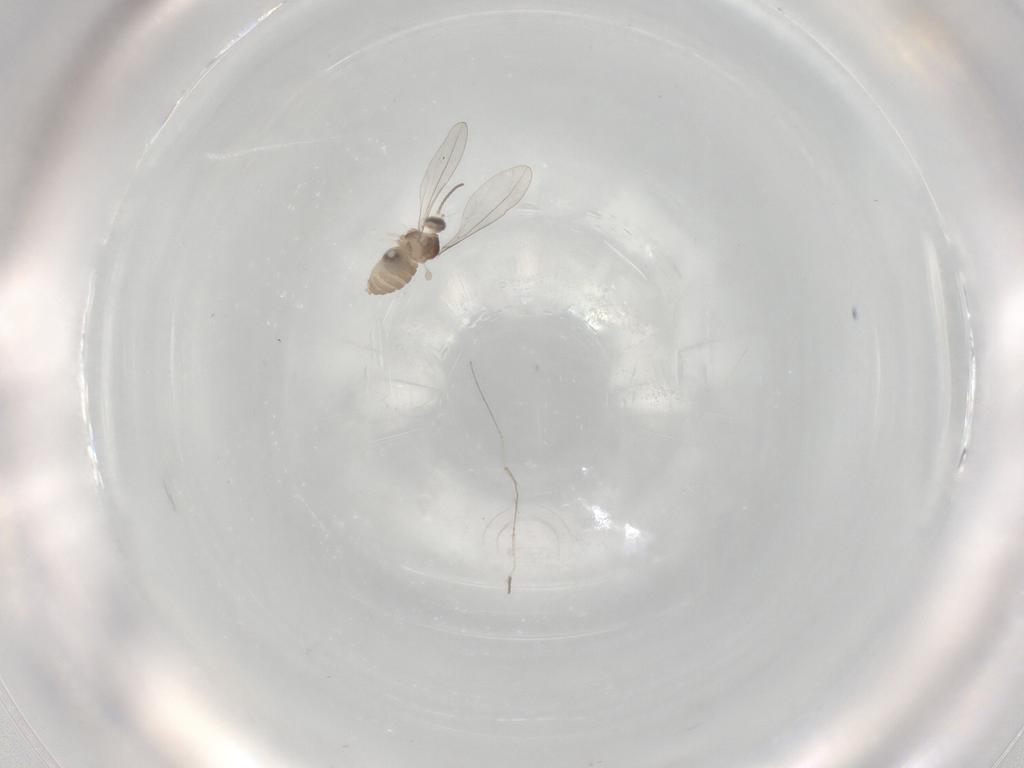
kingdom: Animalia
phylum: Arthropoda
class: Insecta
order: Diptera
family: Cecidomyiidae
